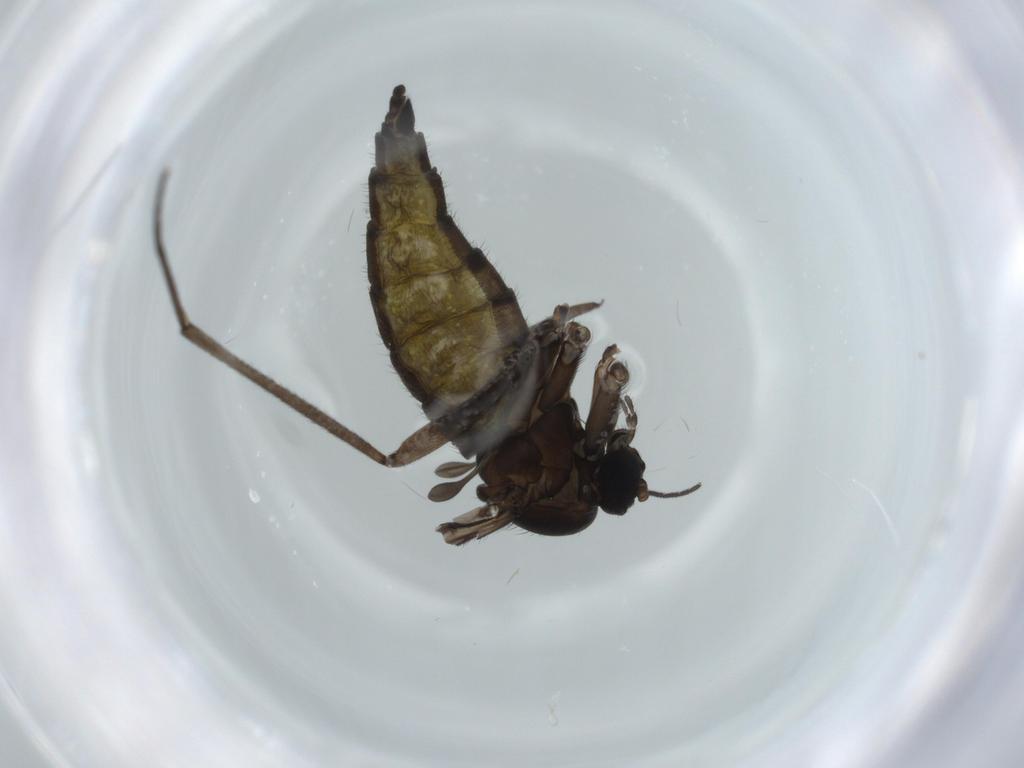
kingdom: Animalia
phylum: Arthropoda
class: Insecta
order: Diptera
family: Sciaridae
